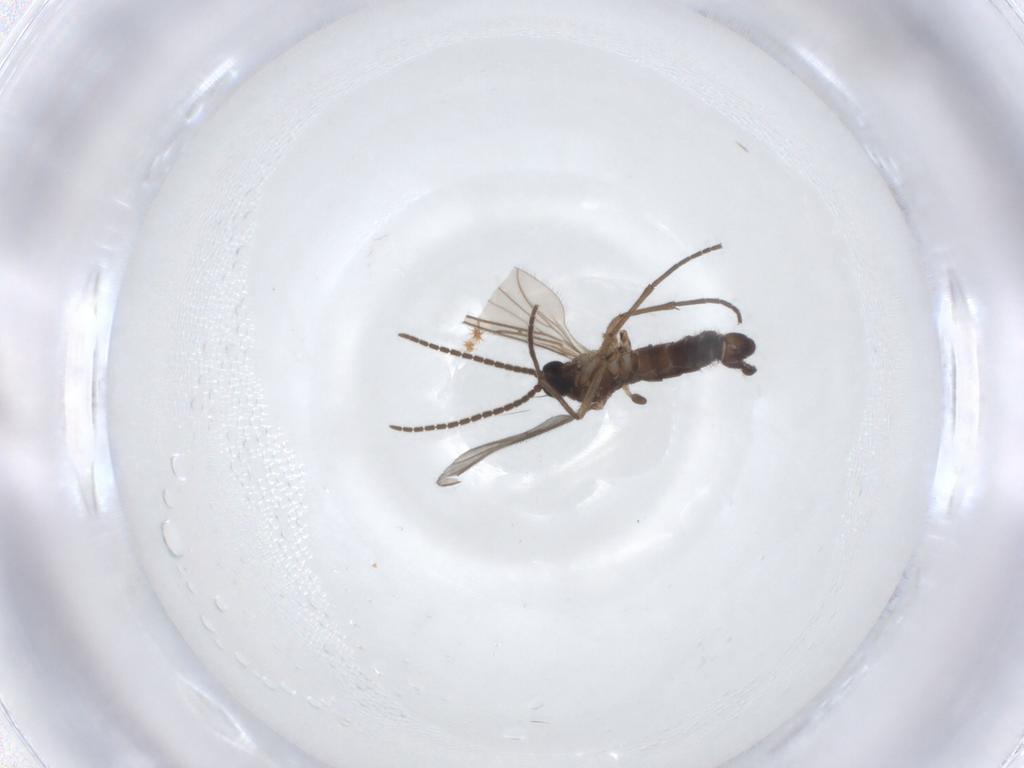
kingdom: Animalia
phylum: Arthropoda
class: Insecta
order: Diptera
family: Sciaridae
